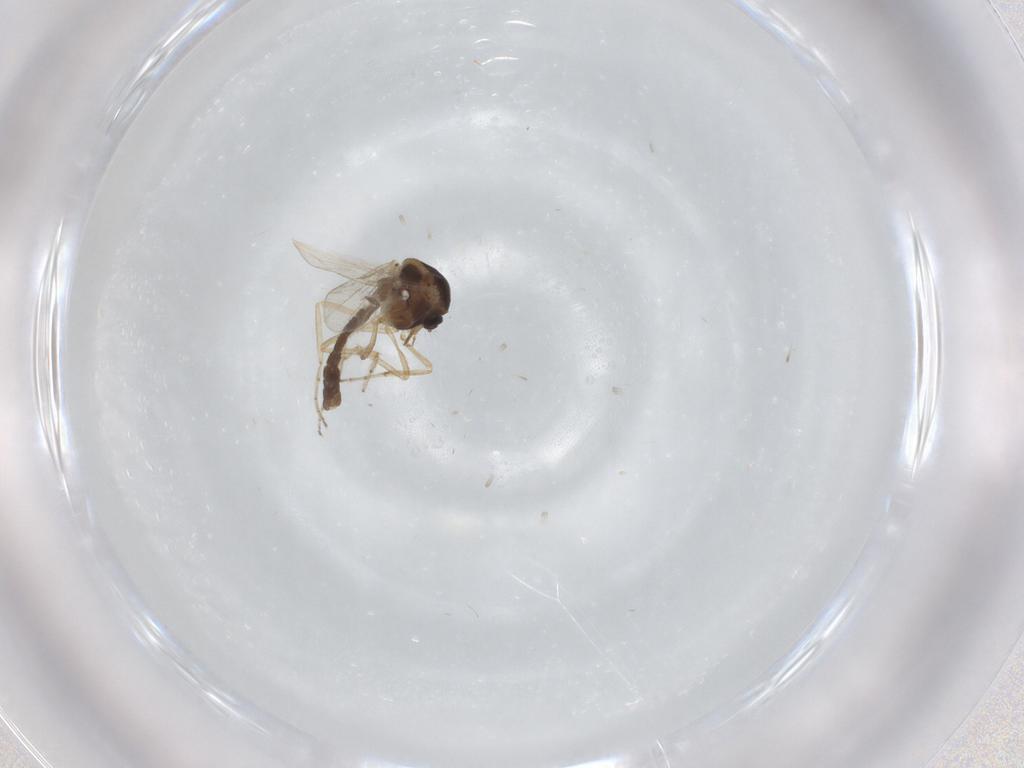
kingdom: Animalia
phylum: Arthropoda
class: Insecta
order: Diptera
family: Ceratopogonidae
